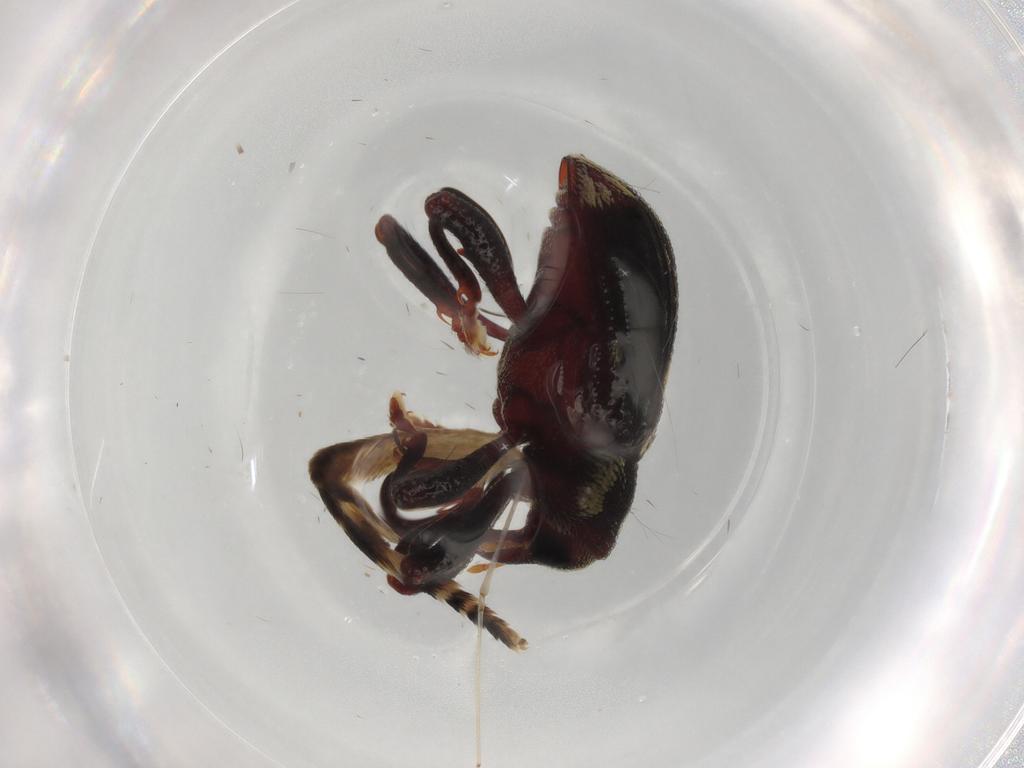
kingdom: Animalia
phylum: Arthropoda
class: Insecta
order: Coleoptera
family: Curculionidae
